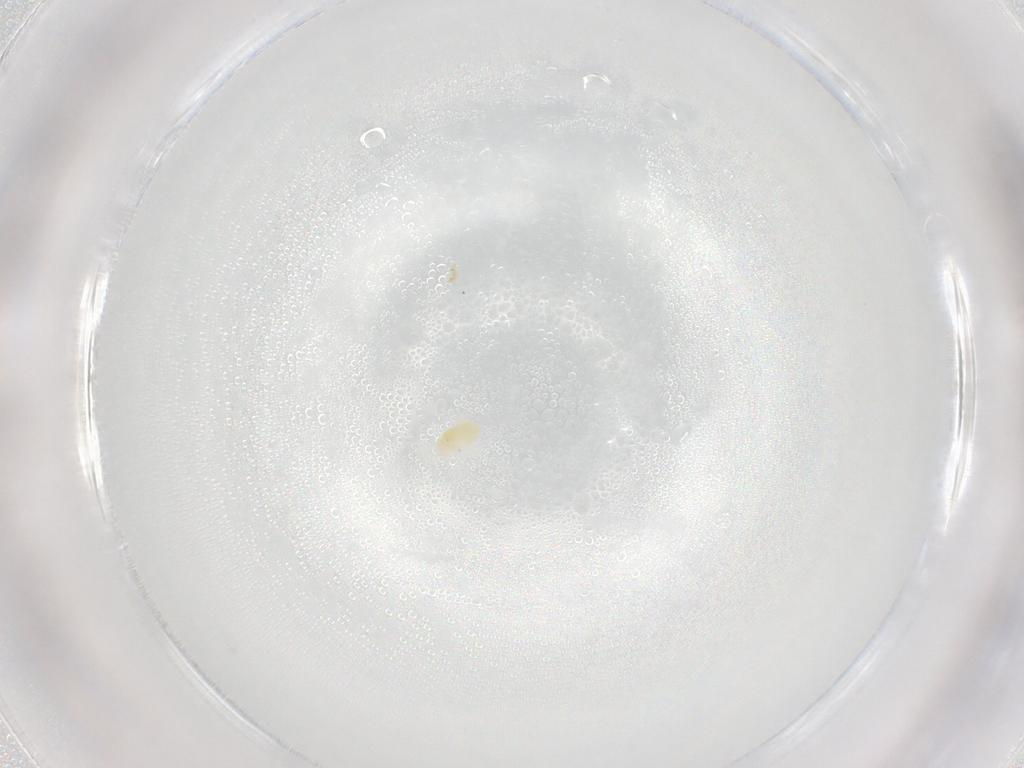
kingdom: Animalia
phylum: Arthropoda
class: Arachnida
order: Trombidiformes
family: Eupodidae
